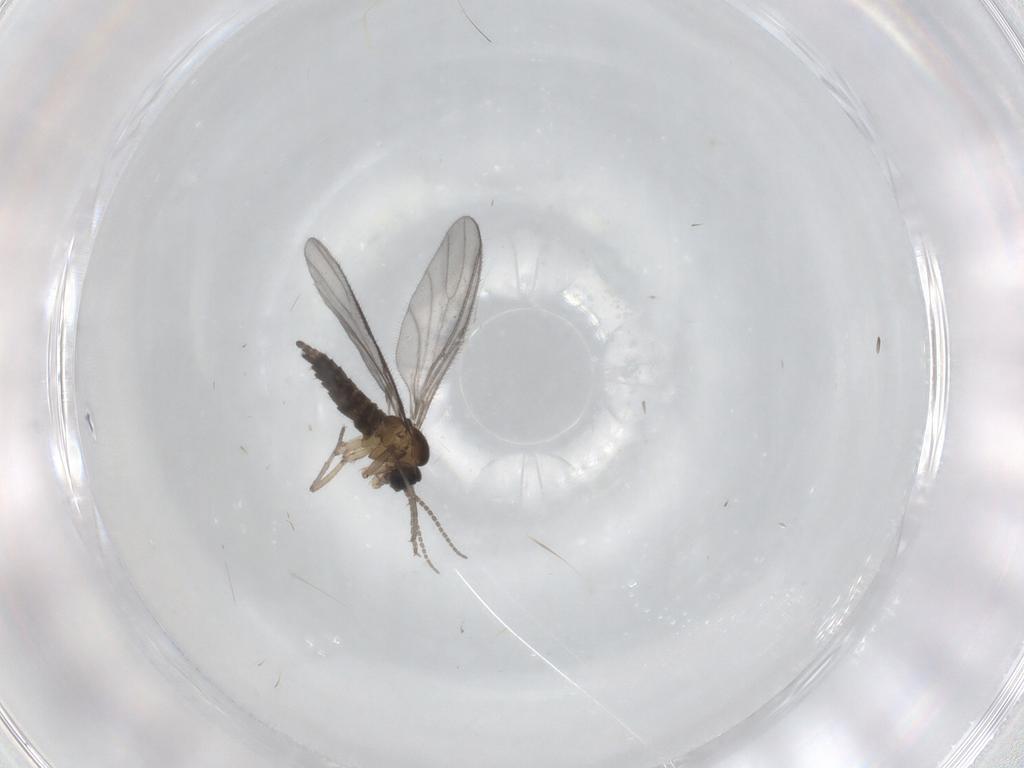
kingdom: Animalia
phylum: Arthropoda
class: Insecta
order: Diptera
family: Sciaridae
